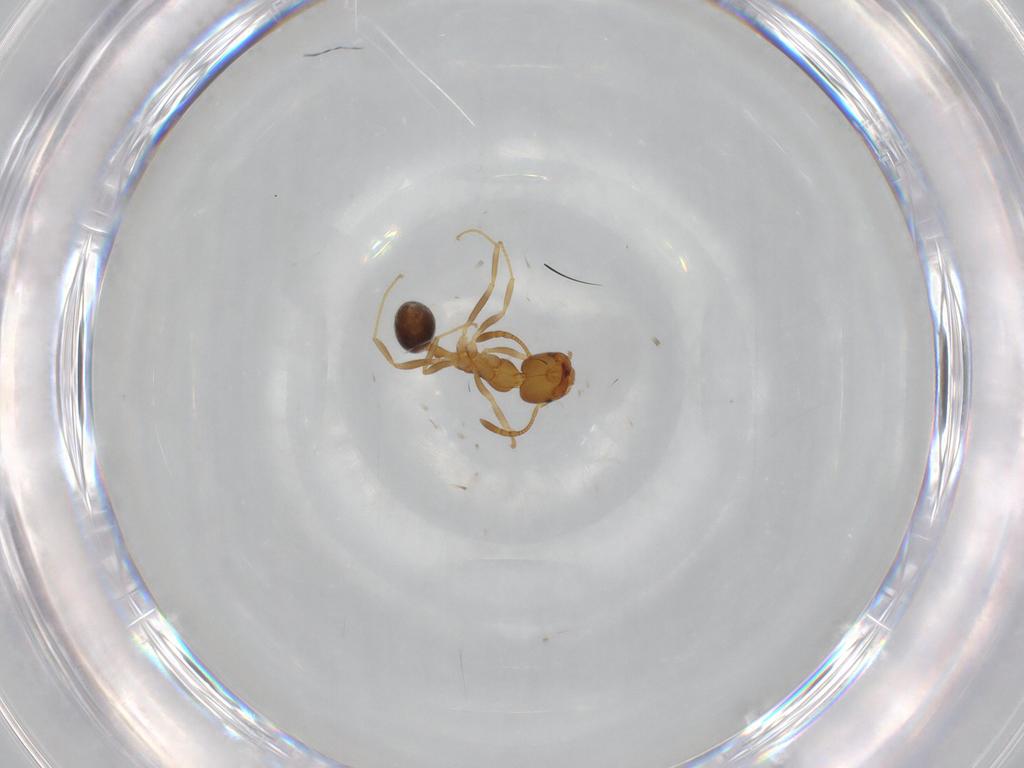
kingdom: Animalia
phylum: Arthropoda
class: Insecta
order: Hymenoptera
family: Formicidae
